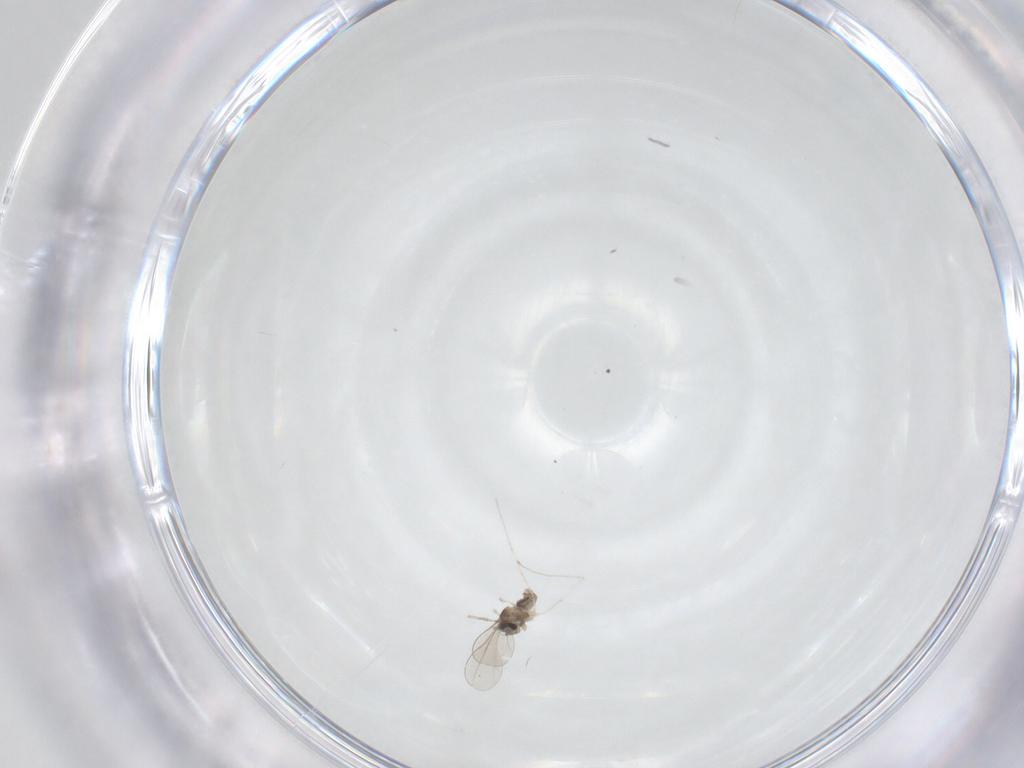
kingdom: Animalia
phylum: Arthropoda
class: Insecta
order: Diptera
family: Ceratopogonidae
